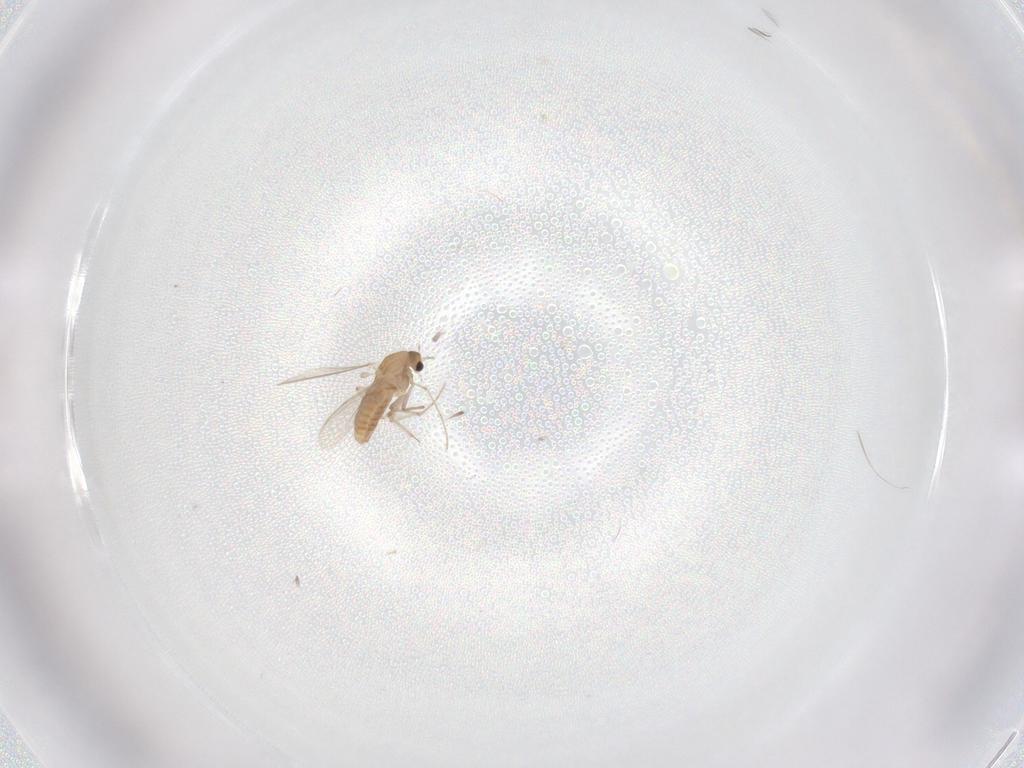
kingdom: Animalia
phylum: Arthropoda
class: Insecta
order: Diptera
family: Chironomidae
